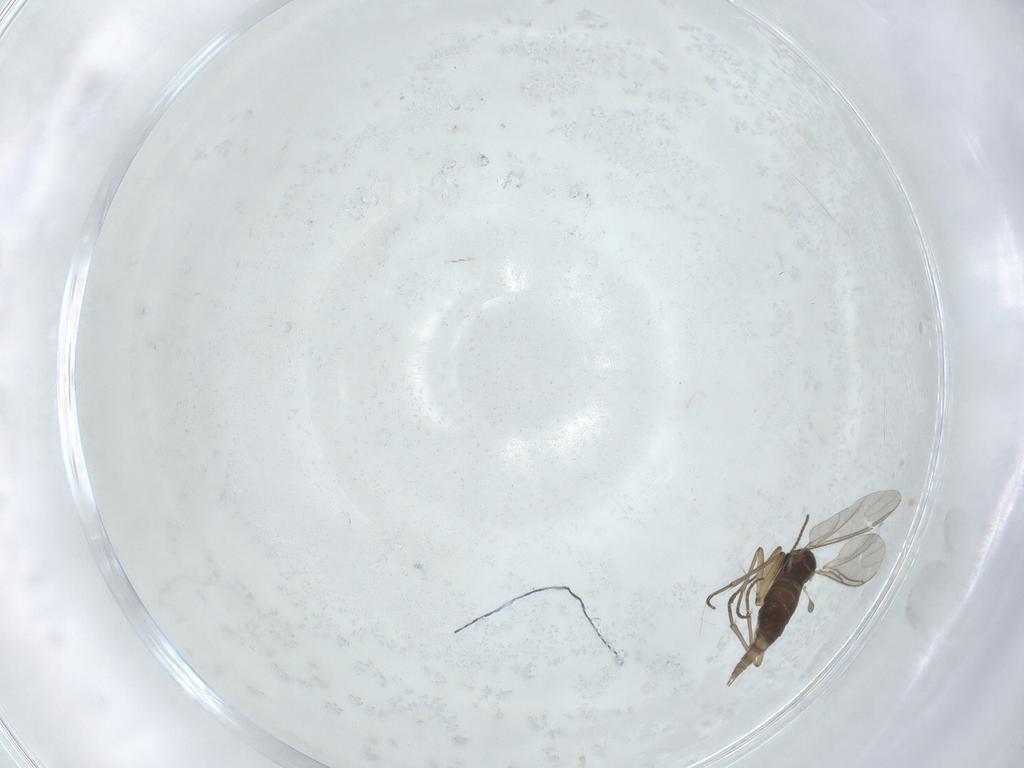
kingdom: Animalia
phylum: Arthropoda
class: Insecta
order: Diptera
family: Sciaridae
